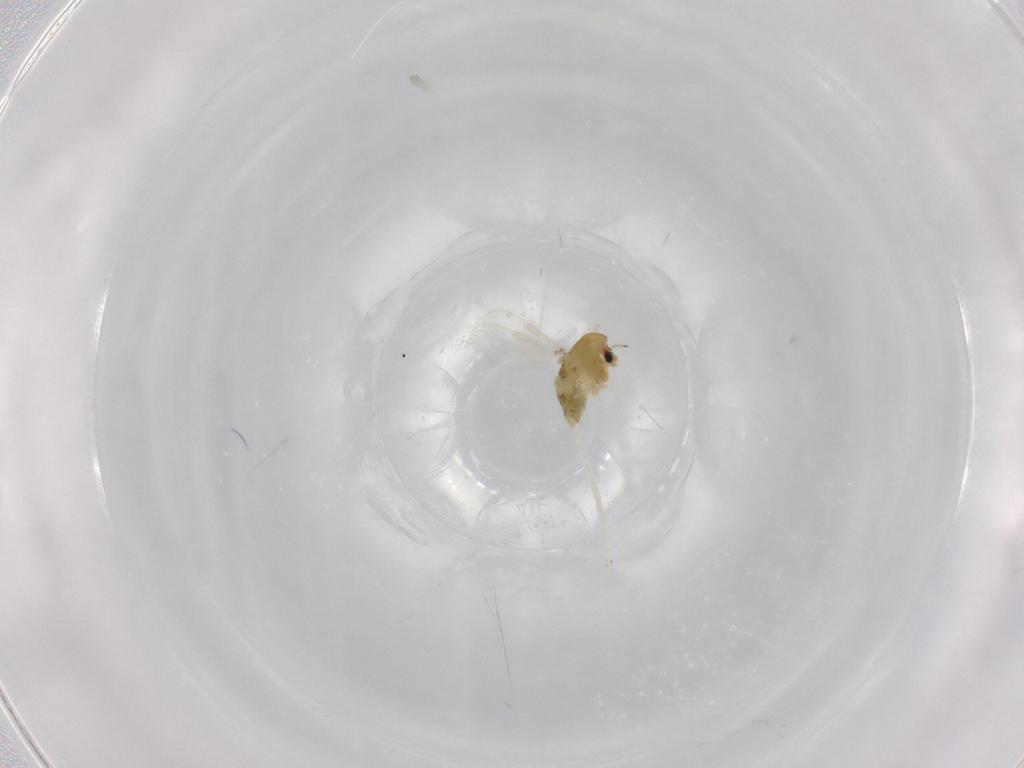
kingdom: Animalia
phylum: Arthropoda
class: Insecta
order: Diptera
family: Chironomidae
